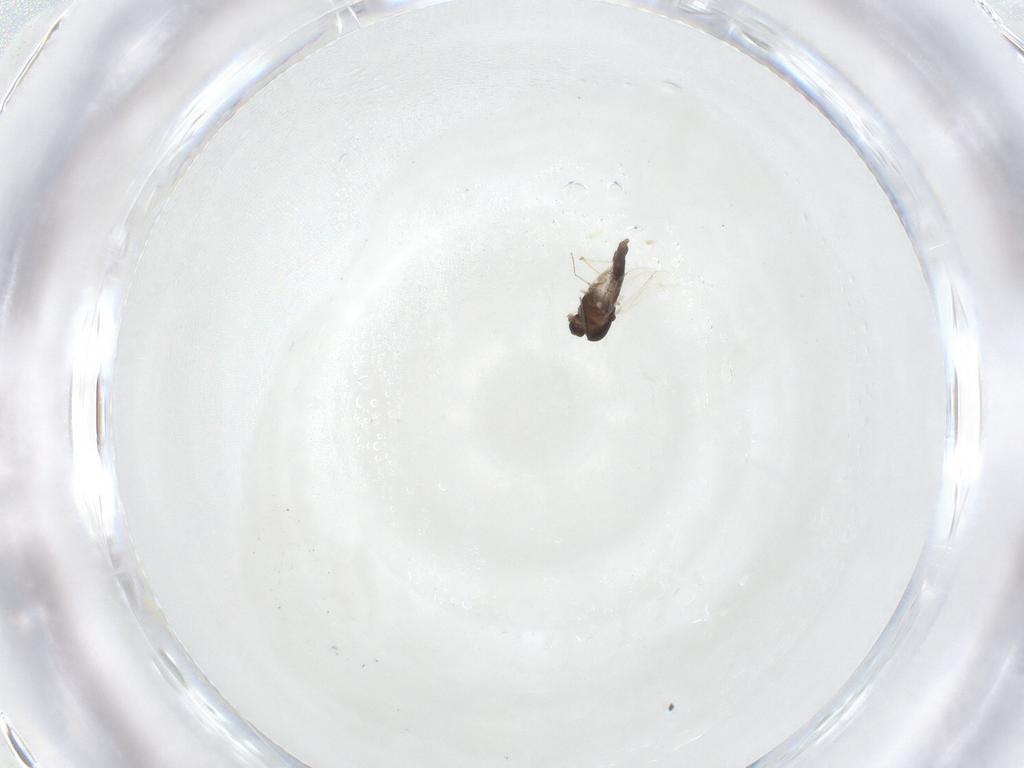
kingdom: Animalia
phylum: Arthropoda
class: Insecta
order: Diptera
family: Chironomidae
